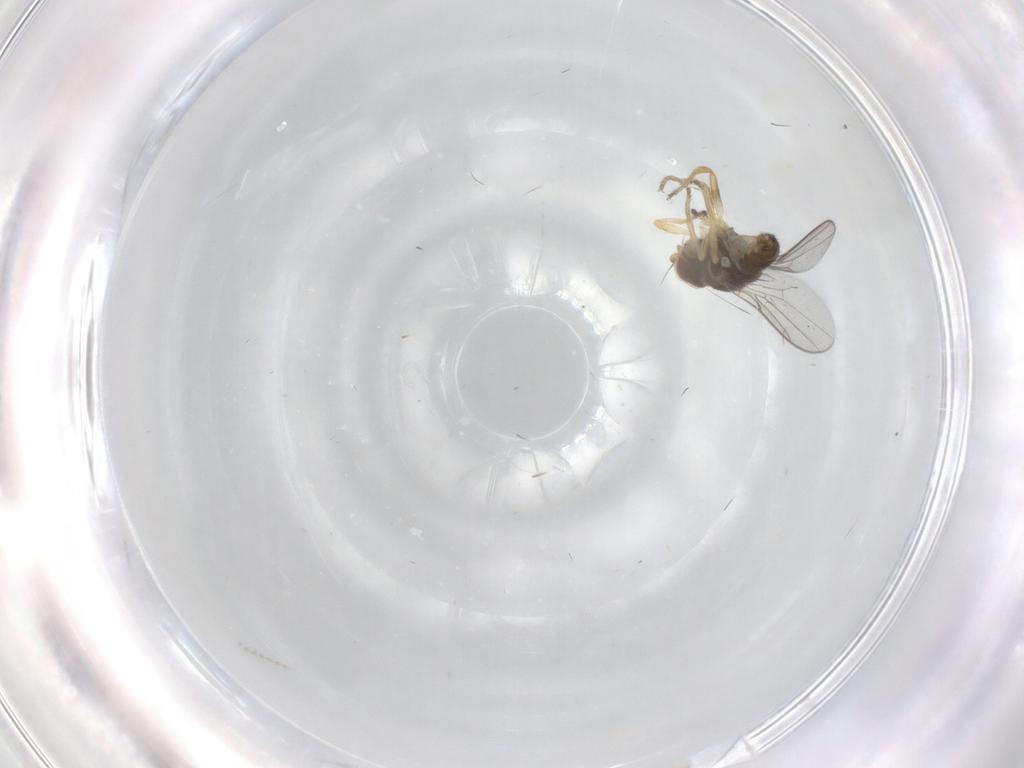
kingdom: Animalia
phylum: Arthropoda
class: Insecta
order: Diptera
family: Chloropidae
